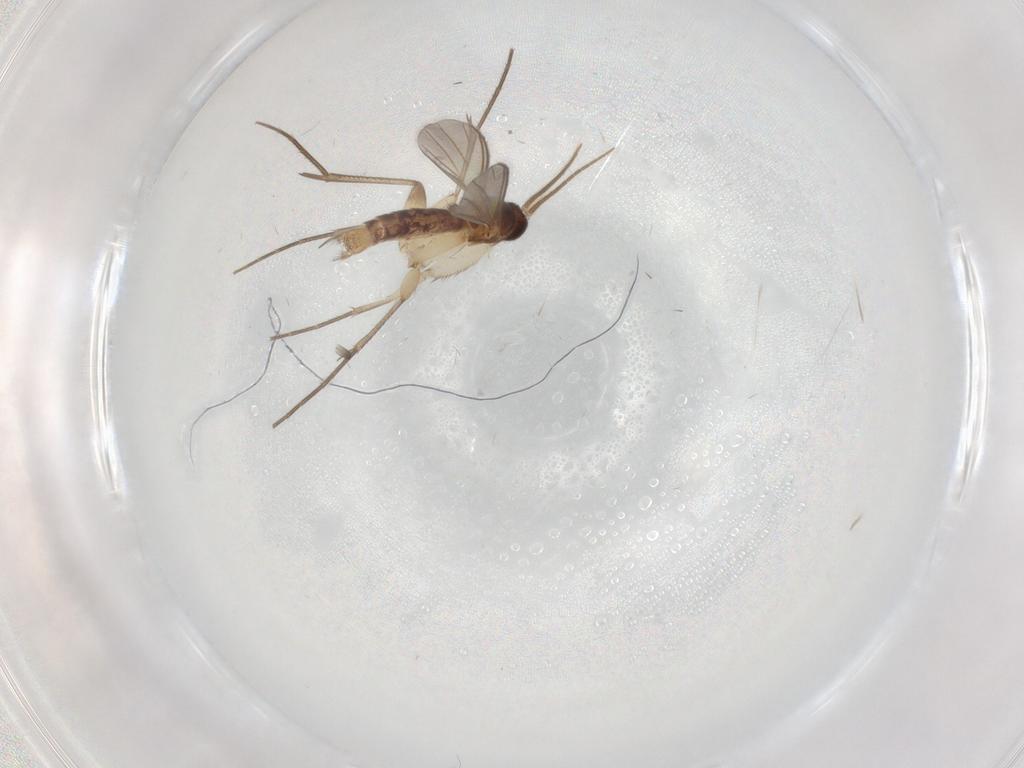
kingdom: Animalia
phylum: Arthropoda
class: Insecta
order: Diptera
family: Mycetophilidae
